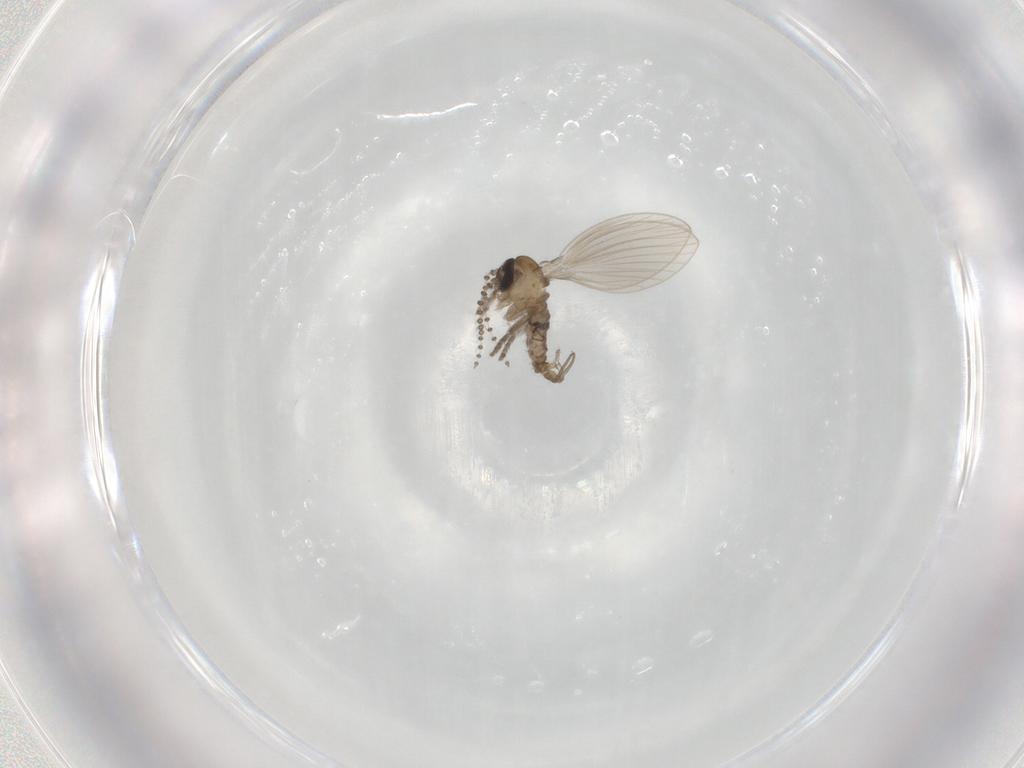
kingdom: Animalia
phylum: Arthropoda
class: Insecta
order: Diptera
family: Psychodidae
